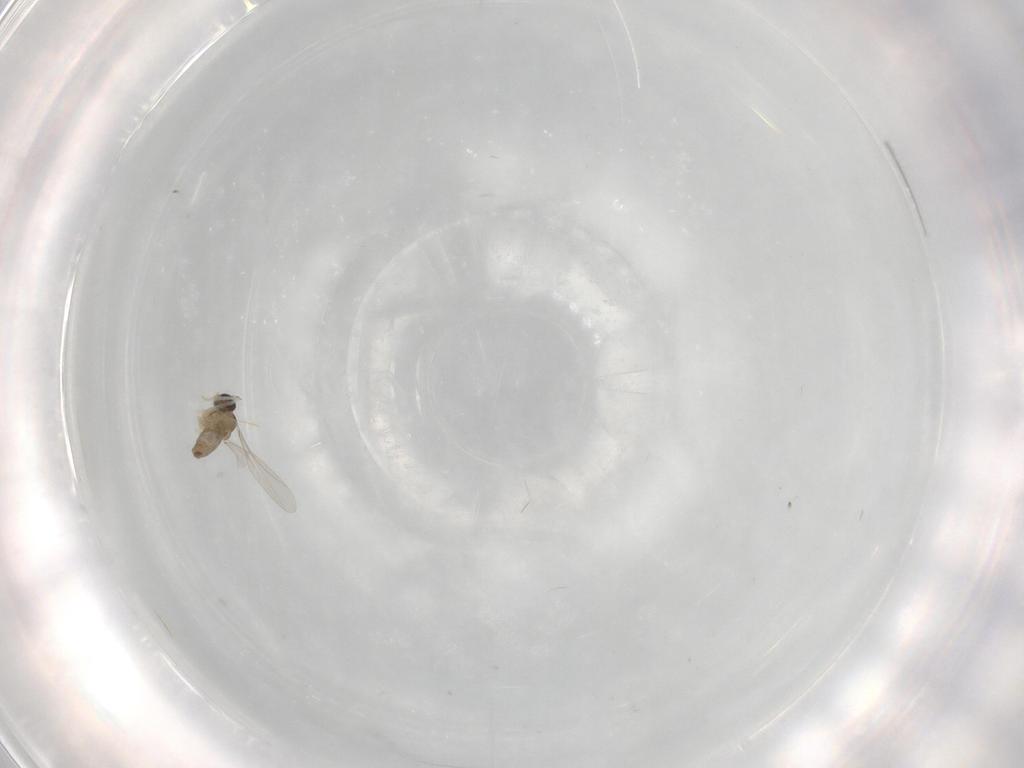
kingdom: Animalia
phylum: Arthropoda
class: Insecta
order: Diptera
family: Cecidomyiidae
